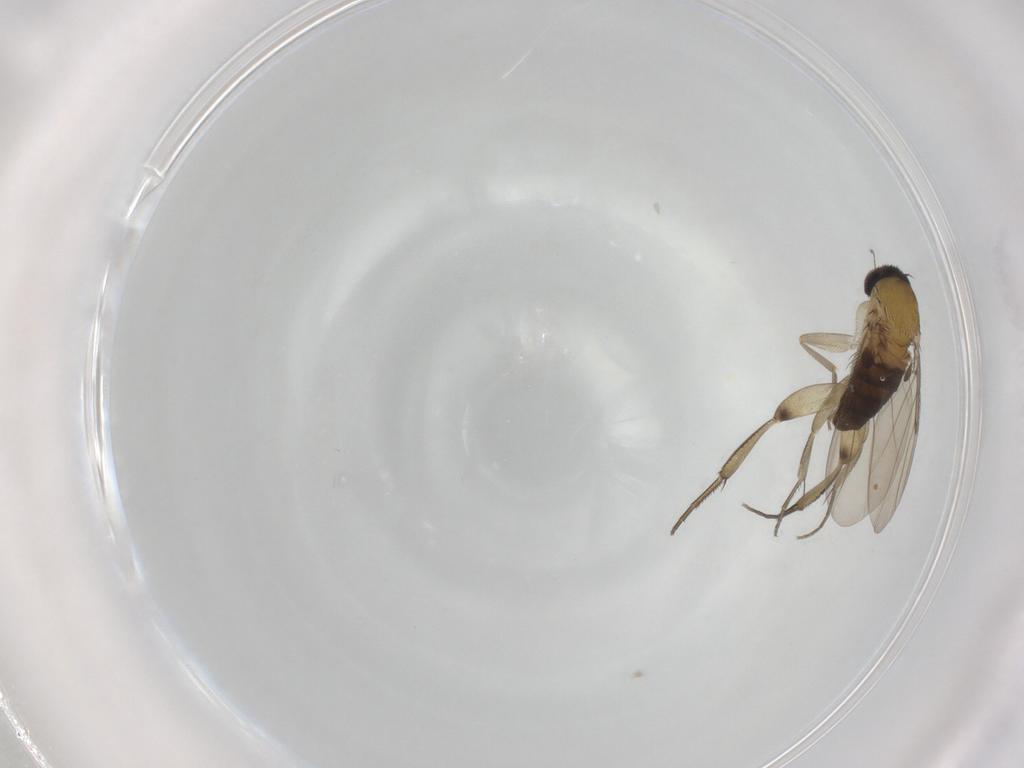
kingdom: Animalia
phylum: Arthropoda
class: Insecta
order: Diptera
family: Phoridae
